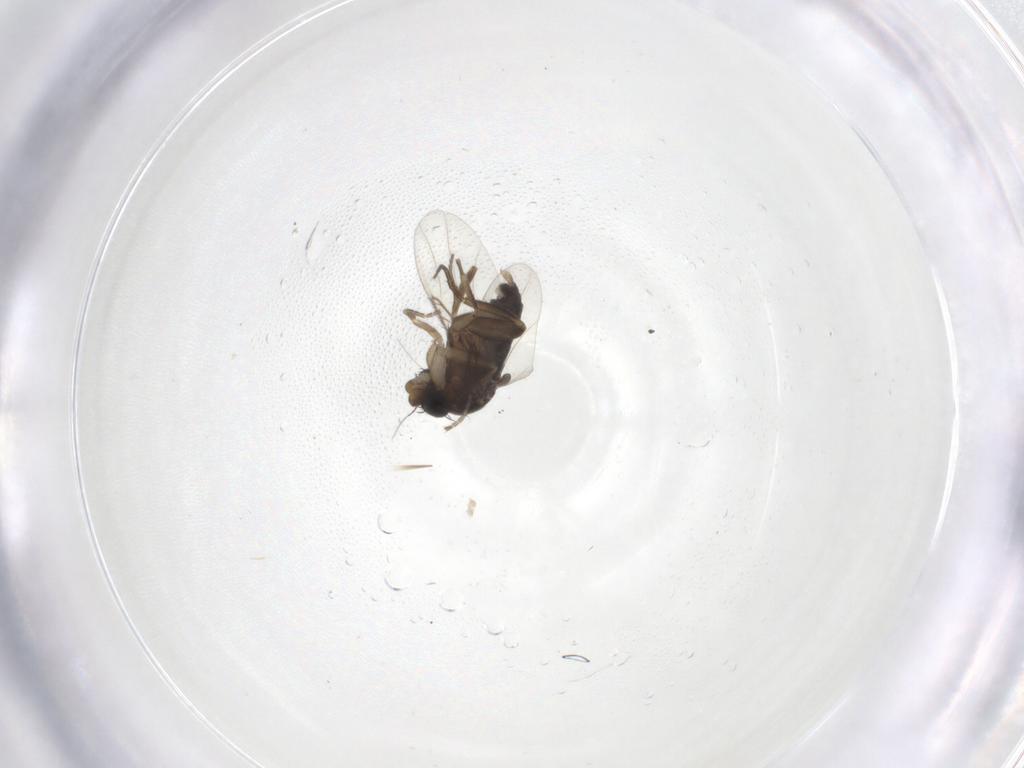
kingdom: Animalia
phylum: Arthropoda
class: Insecta
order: Diptera
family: Phoridae
